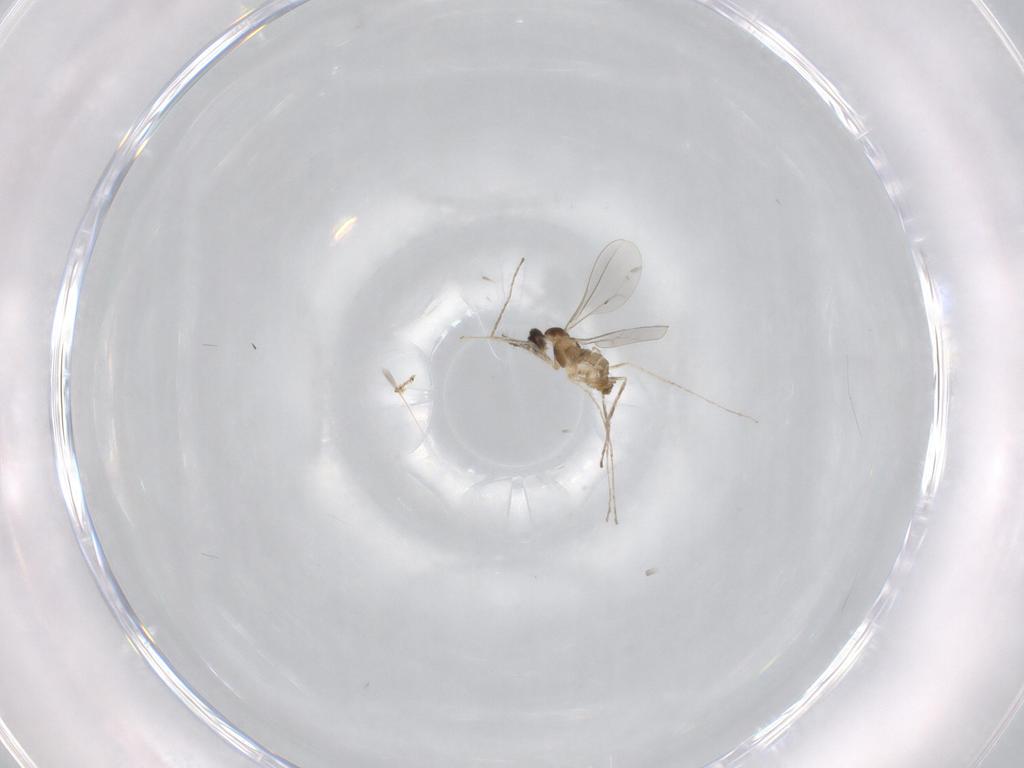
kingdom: Animalia
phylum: Arthropoda
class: Insecta
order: Diptera
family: Cecidomyiidae
